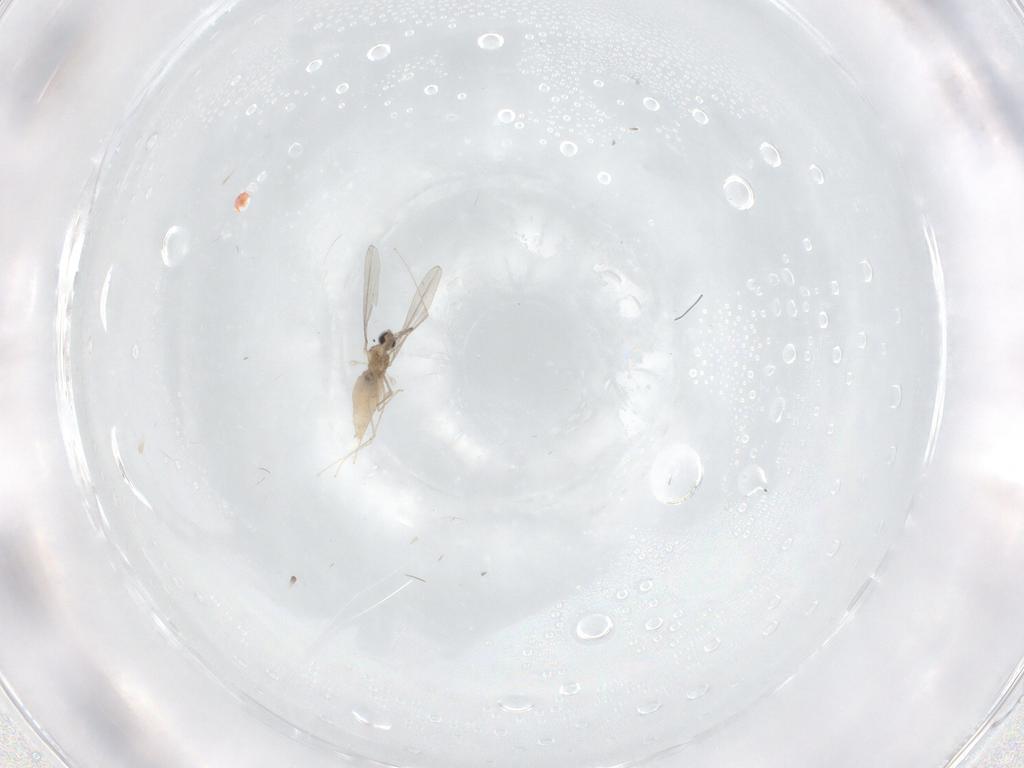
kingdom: Animalia
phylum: Arthropoda
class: Insecta
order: Diptera
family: Cecidomyiidae
